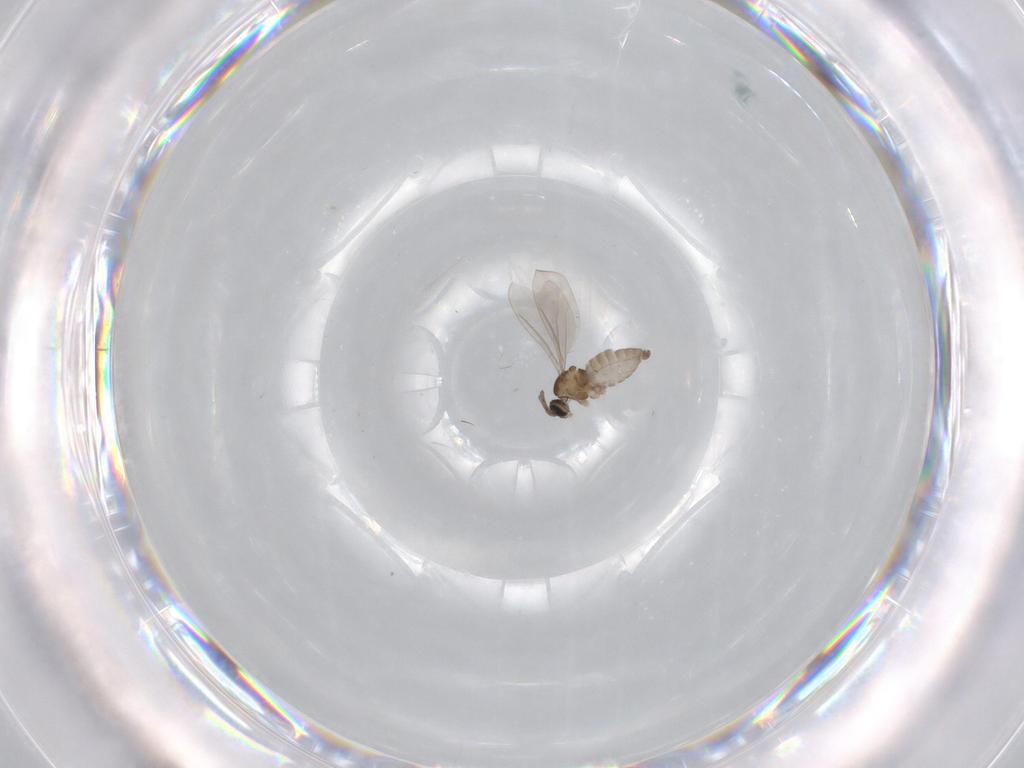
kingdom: Animalia
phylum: Arthropoda
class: Insecta
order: Diptera
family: Cecidomyiidae
